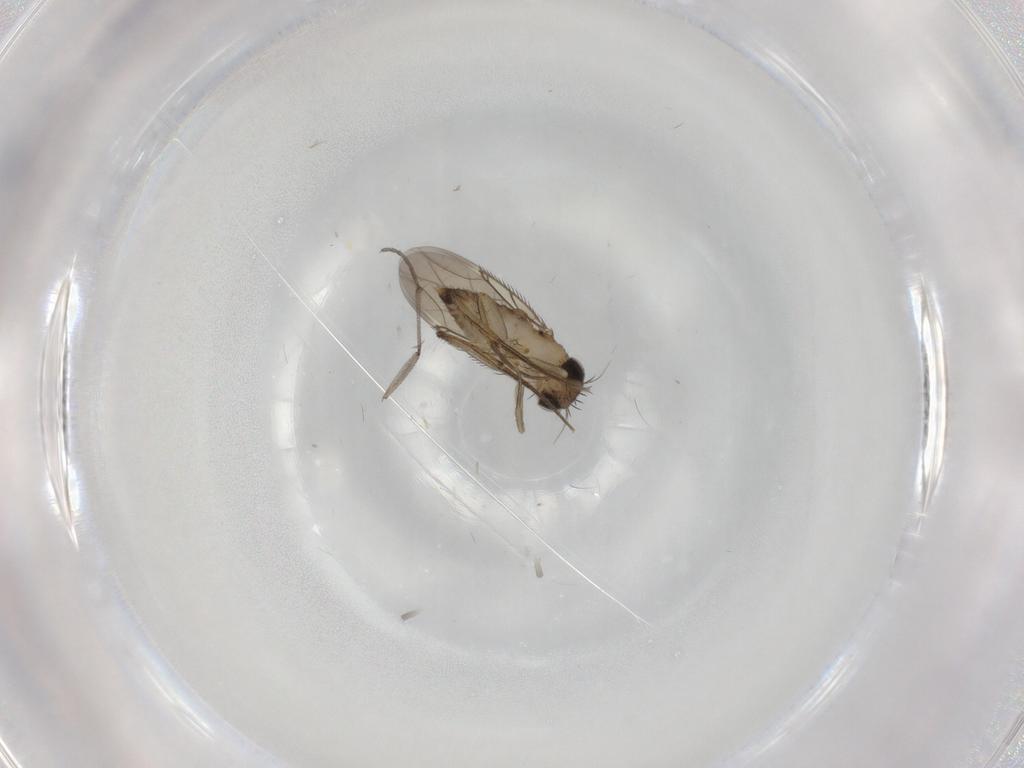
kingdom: Animalia
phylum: Arthropoda
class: Insecta
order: Diptera
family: Phoridae
